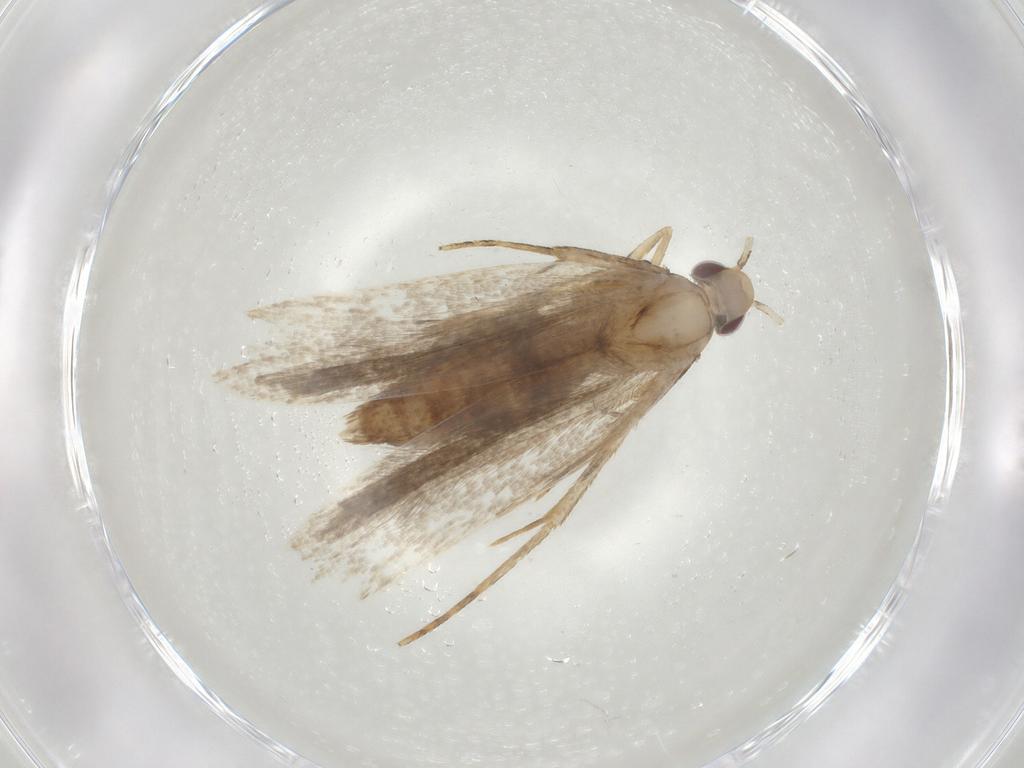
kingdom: Animalia
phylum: Arthropoda
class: Insecta
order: Lepidoptera
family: Gelechiidae
